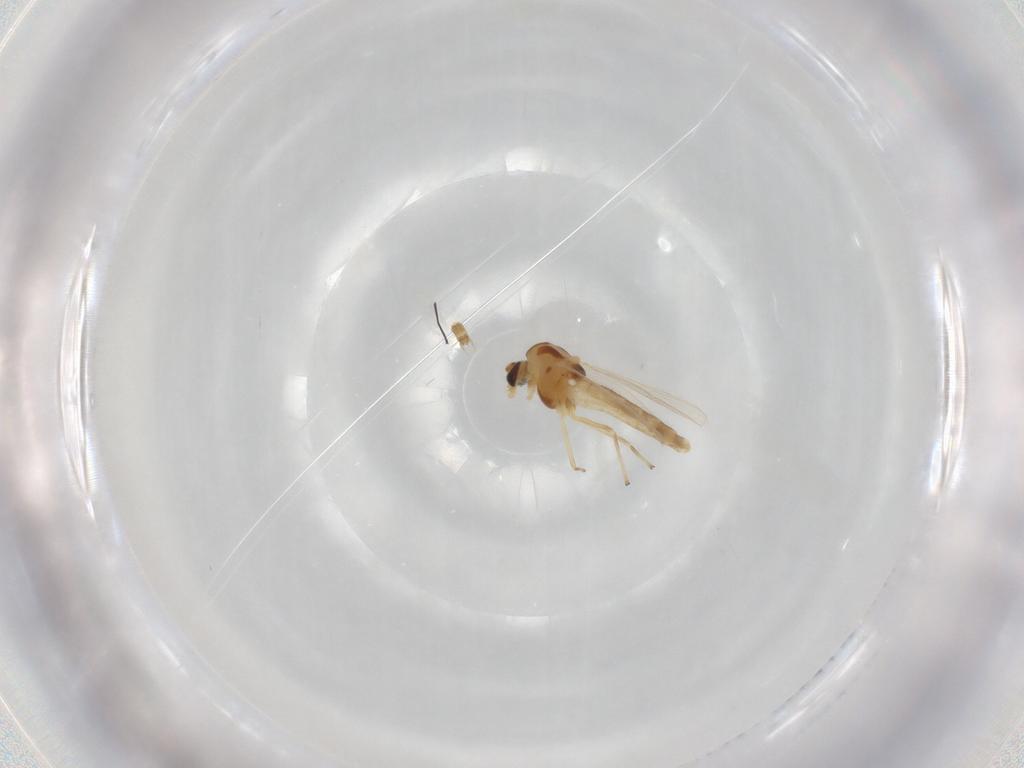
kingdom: Animalia
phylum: Arthropoda
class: Insecta
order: Diptera
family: Chironomidae
